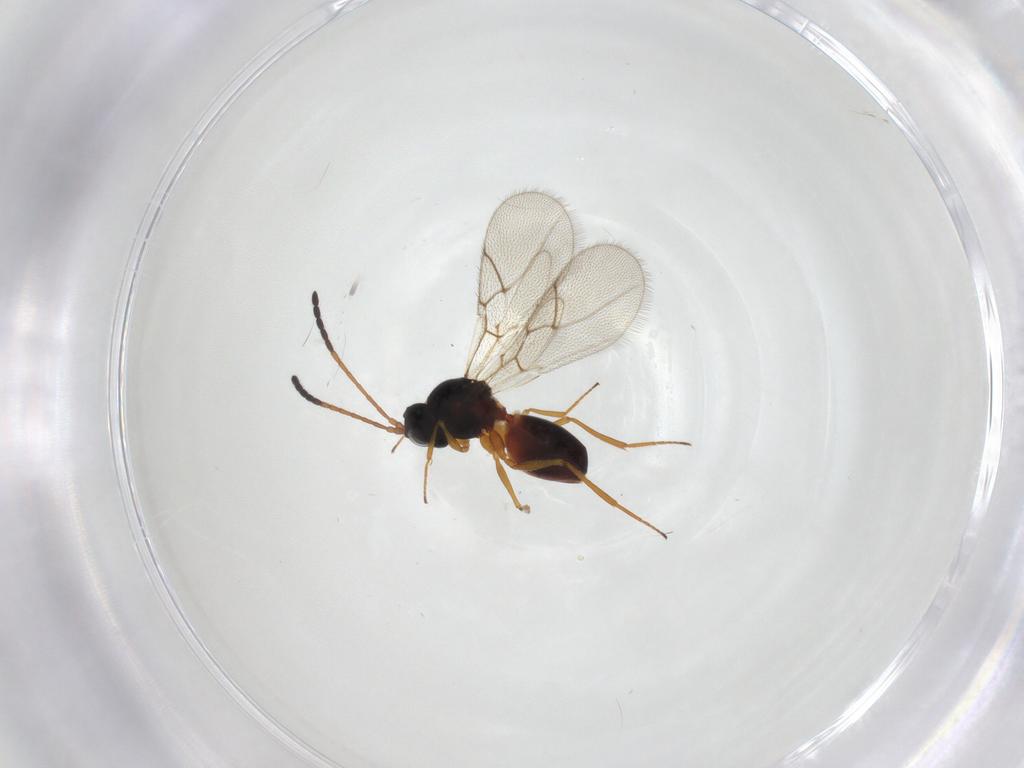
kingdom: Animalia
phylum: Arthropoda
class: Insecta
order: Hymenoptera
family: Figitidae
